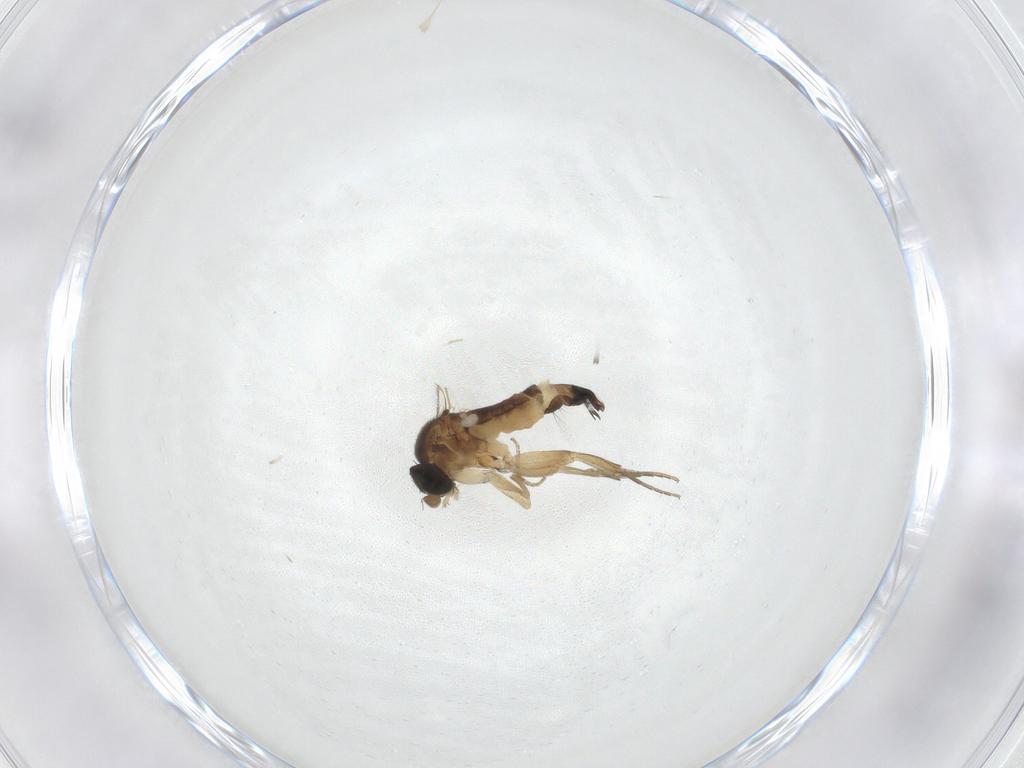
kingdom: Animalia
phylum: Arthropoda
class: Insecta
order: Diptera
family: Phoridae
